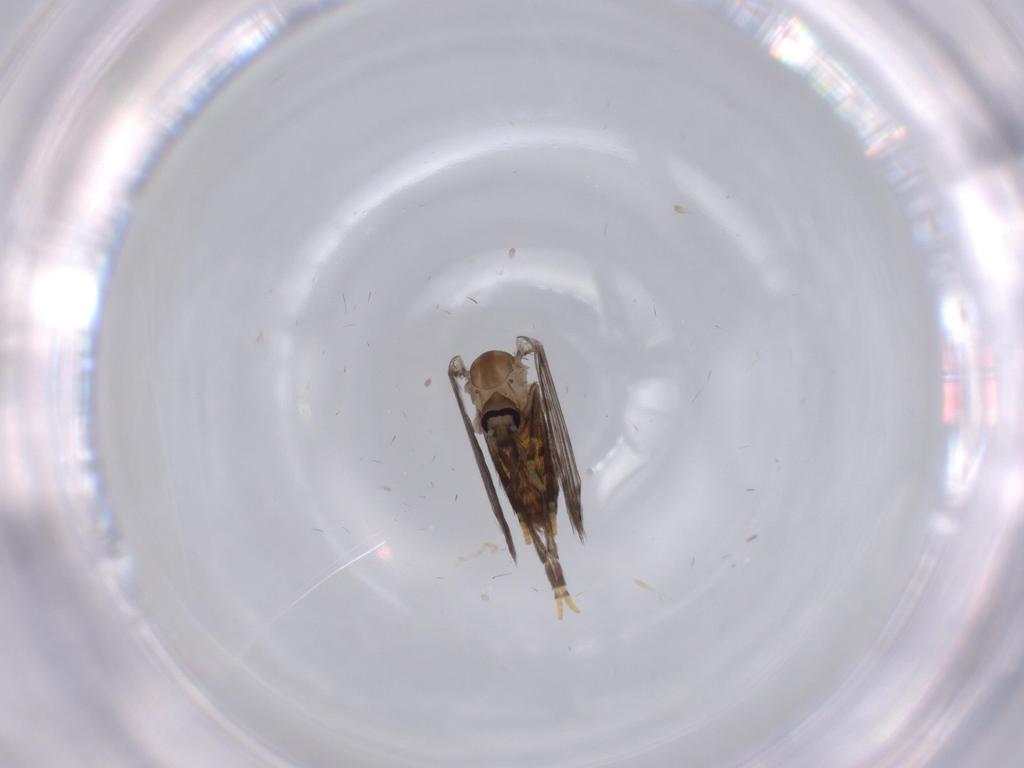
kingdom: Animalia
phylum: Arthropoda
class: Insecta
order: Diptera
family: Psychodidae
